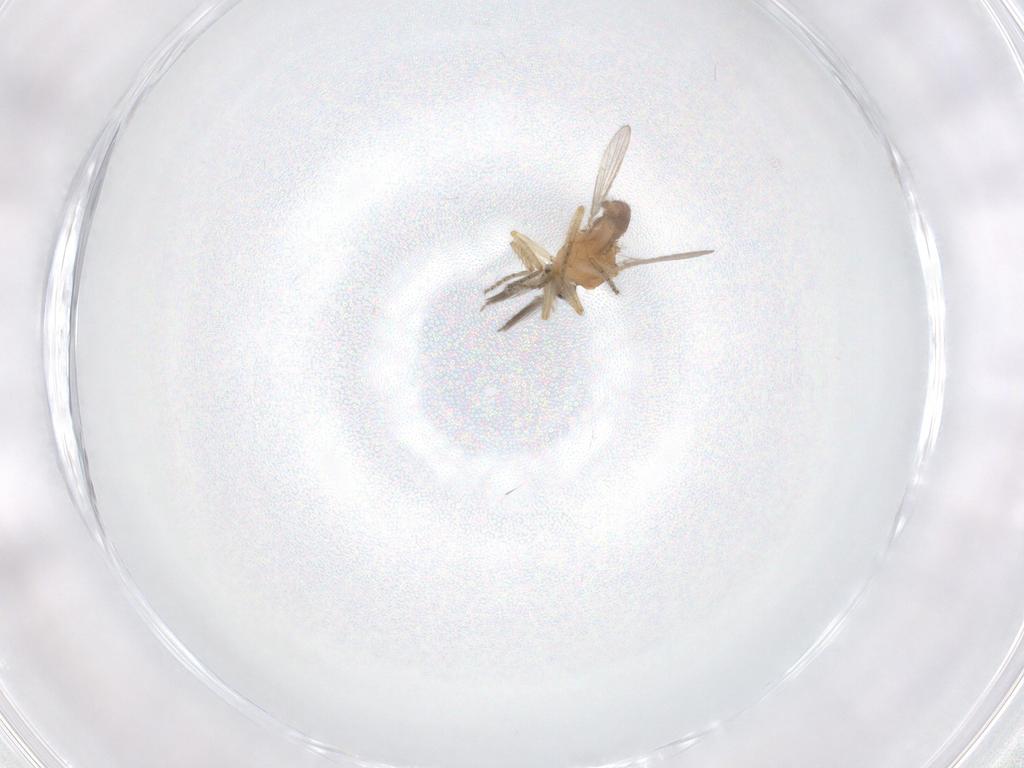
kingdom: Animalia
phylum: Arthropoda
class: Insecta
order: Diptera
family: Ceratopogonidae
